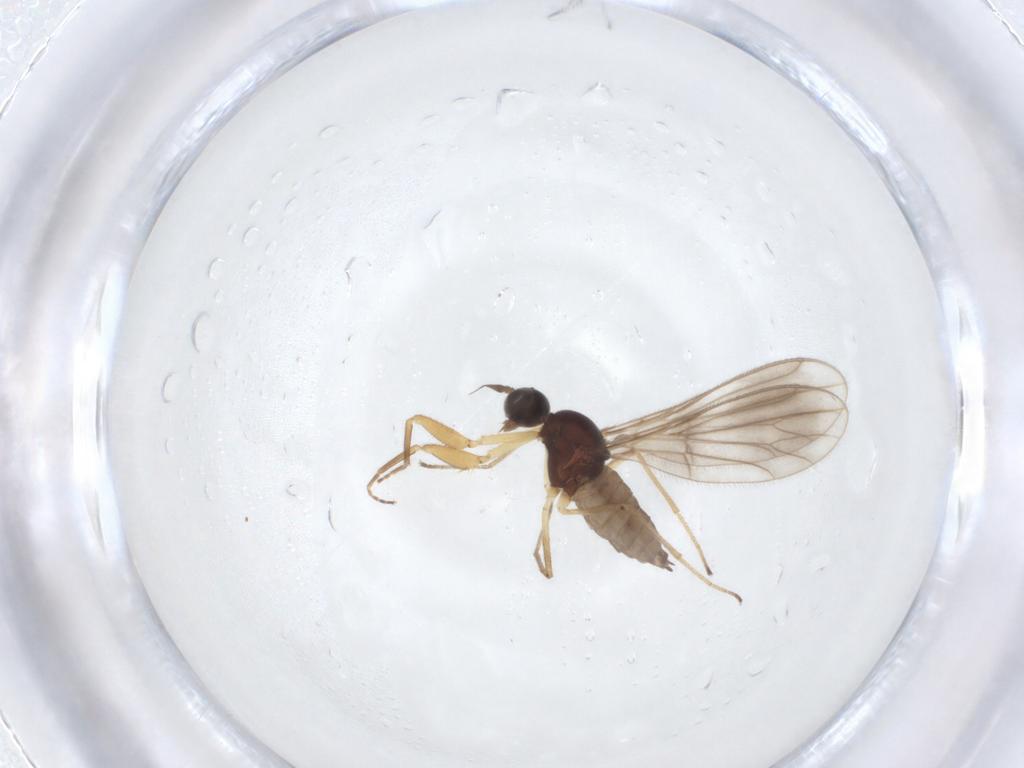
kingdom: Animalia
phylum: Arthropoda
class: Insecta
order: Diptera
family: Empididae
